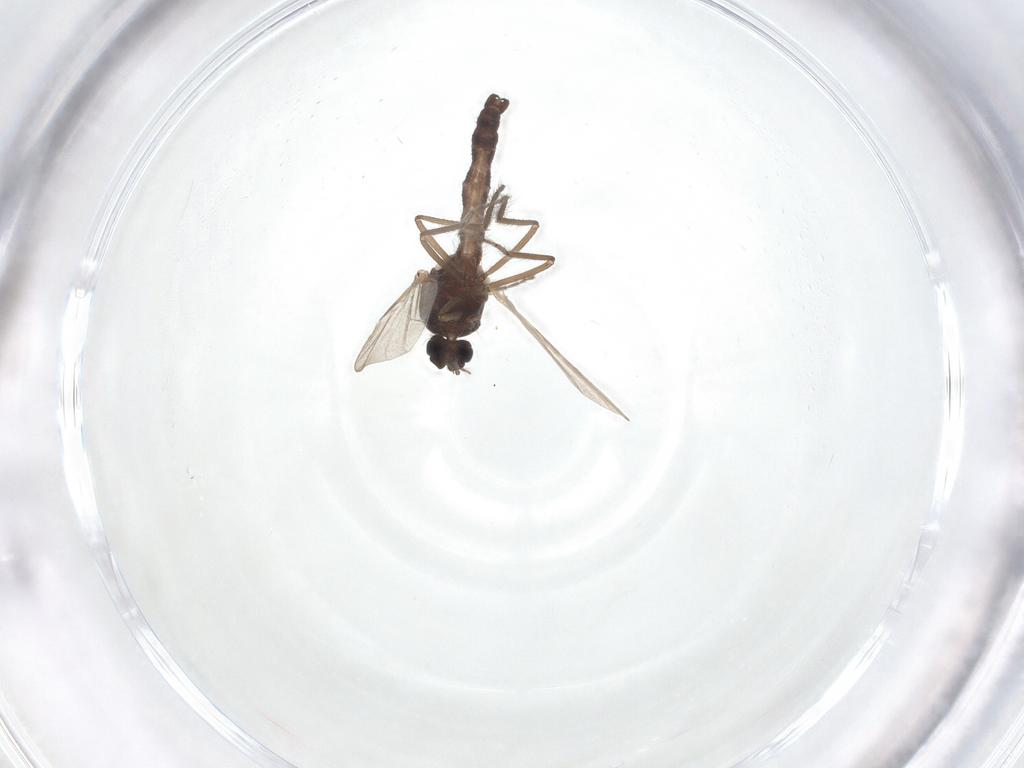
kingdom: Animalia
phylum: Arthropoda
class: Insecta
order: Diptera
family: Ceratopogonidae
